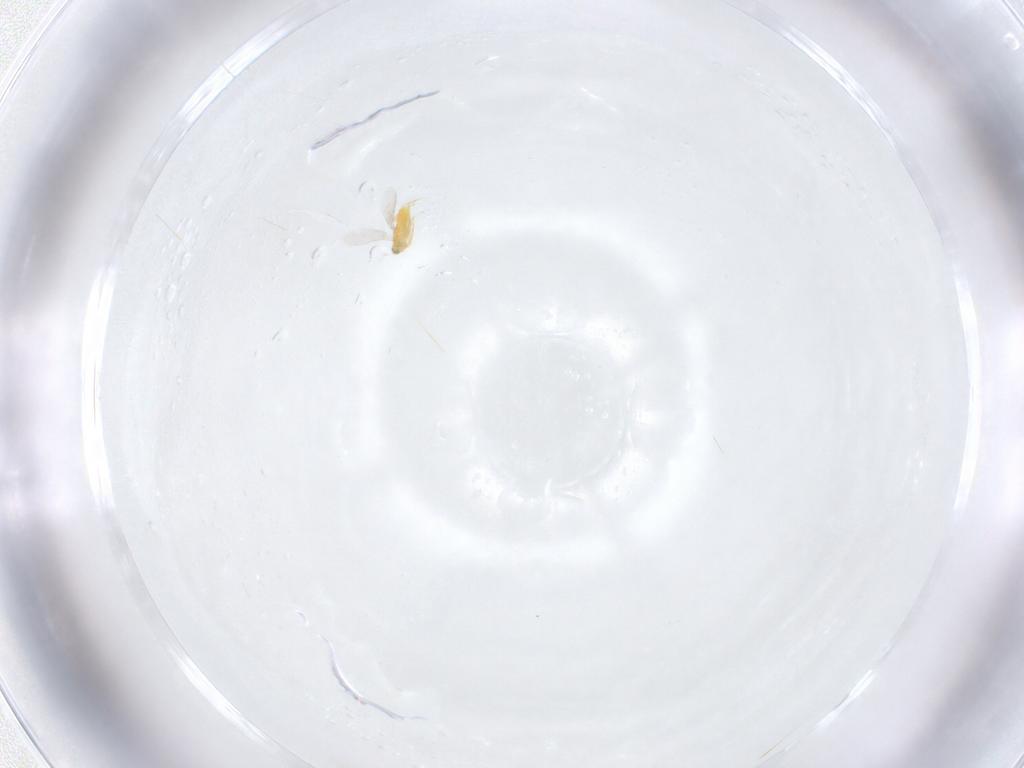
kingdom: Animalia
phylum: Arthropoda
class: Insecta
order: Hymenoptera
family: Aphelinidae
